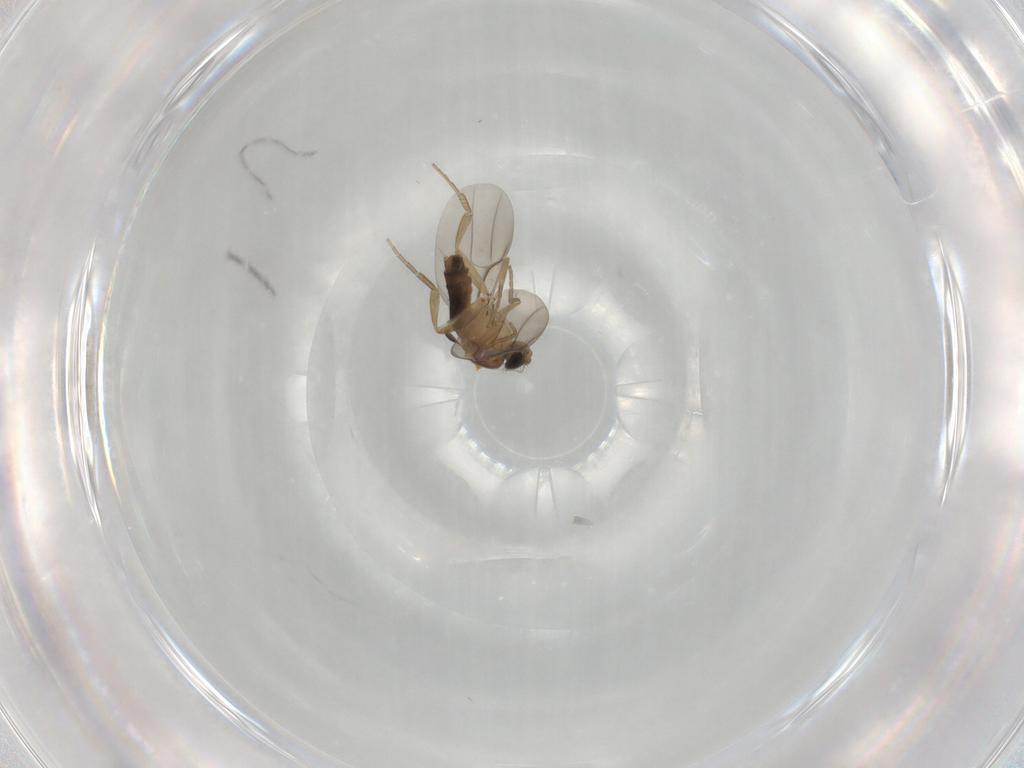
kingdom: Animalia
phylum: Arthropoda
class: Insecta
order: Diptera
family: Phoridae
